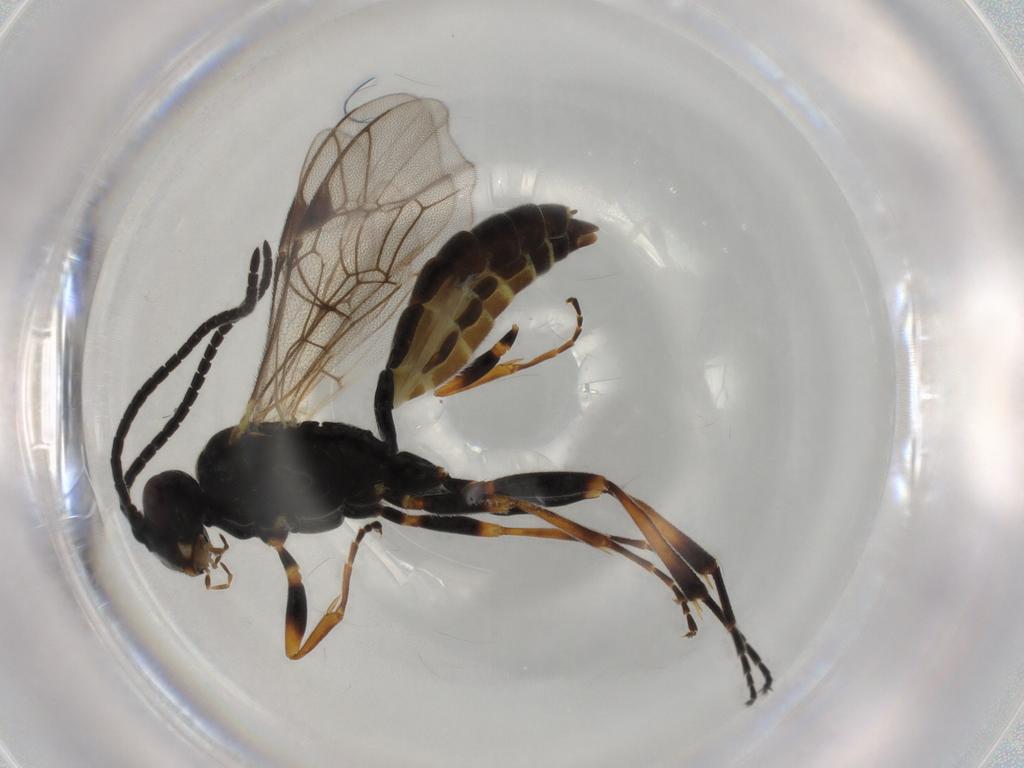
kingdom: Animalia
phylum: Arthropoda
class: Insecta
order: Hymenoptera
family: Ichneumonidae
